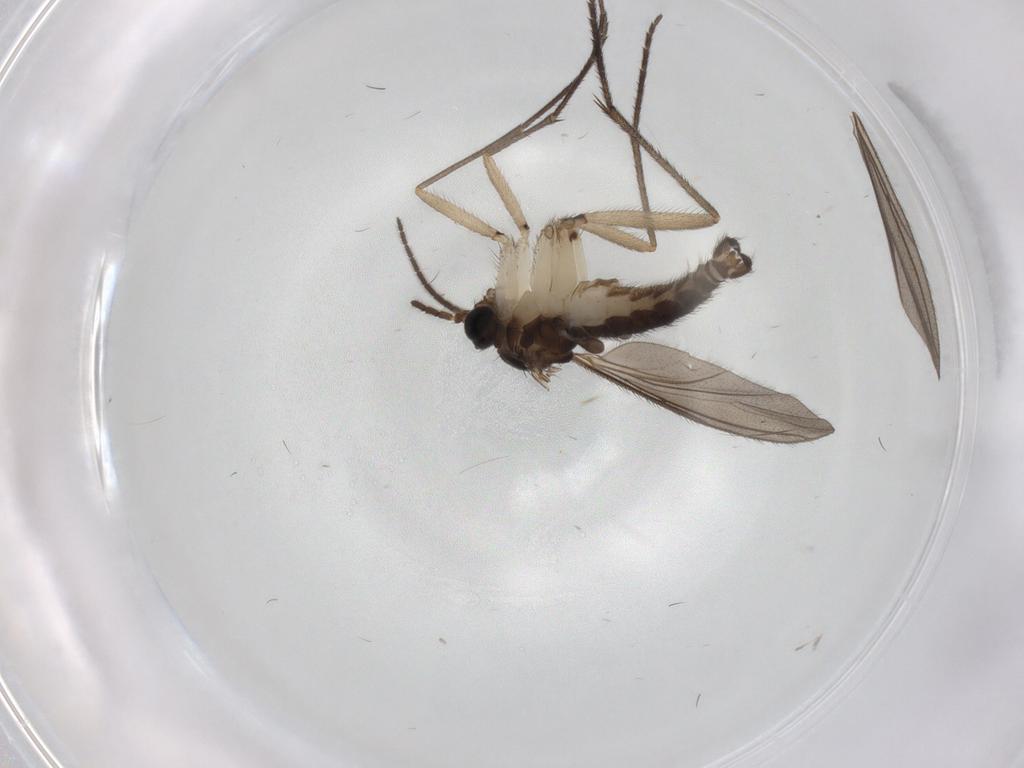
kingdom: Animalia
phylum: Arthropoda
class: Insecta
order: Diptera
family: Sciaridae
